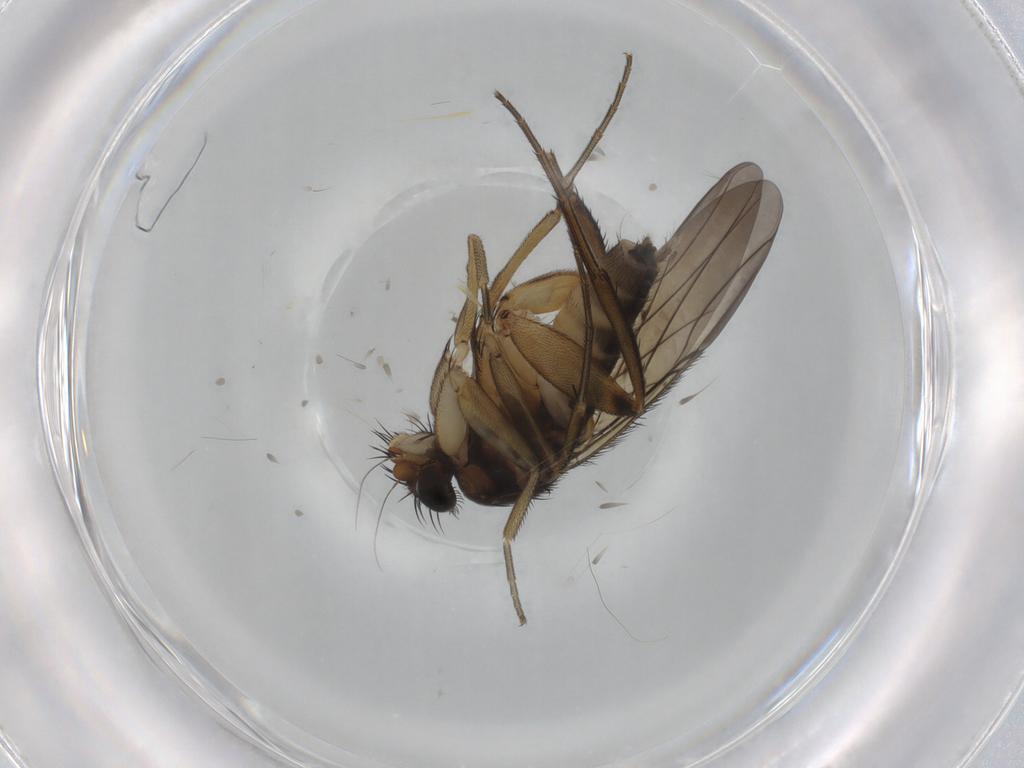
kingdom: Animalia
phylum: Arthropoda
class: Insecta
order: Diptera
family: Phoridae
